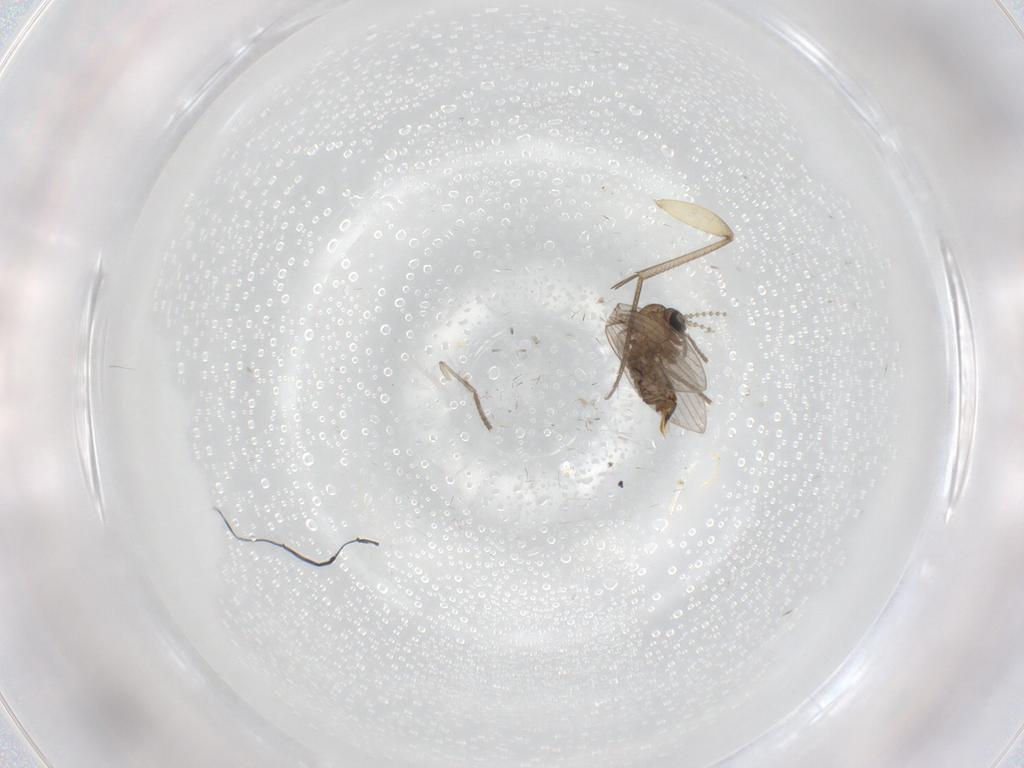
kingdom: Animalia
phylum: Arthropoda
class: Insecta
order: Diptera
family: Psychodidae
